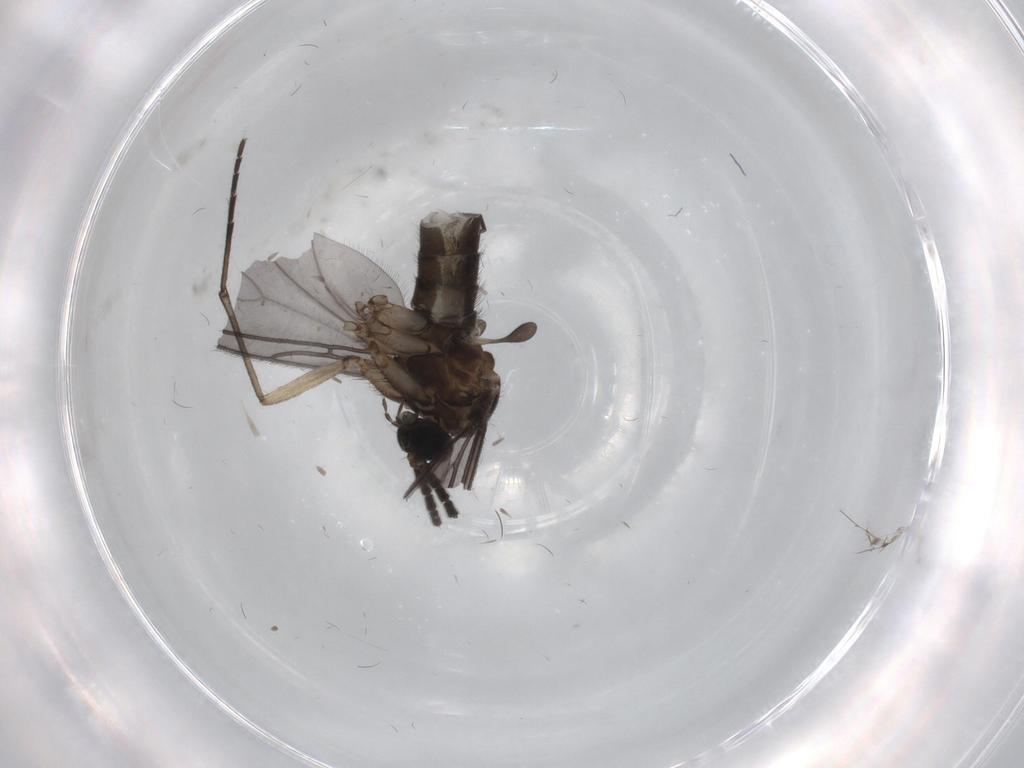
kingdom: Animalia
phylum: Arthropoda
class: Insecta
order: Diptera
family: Sciaridae
